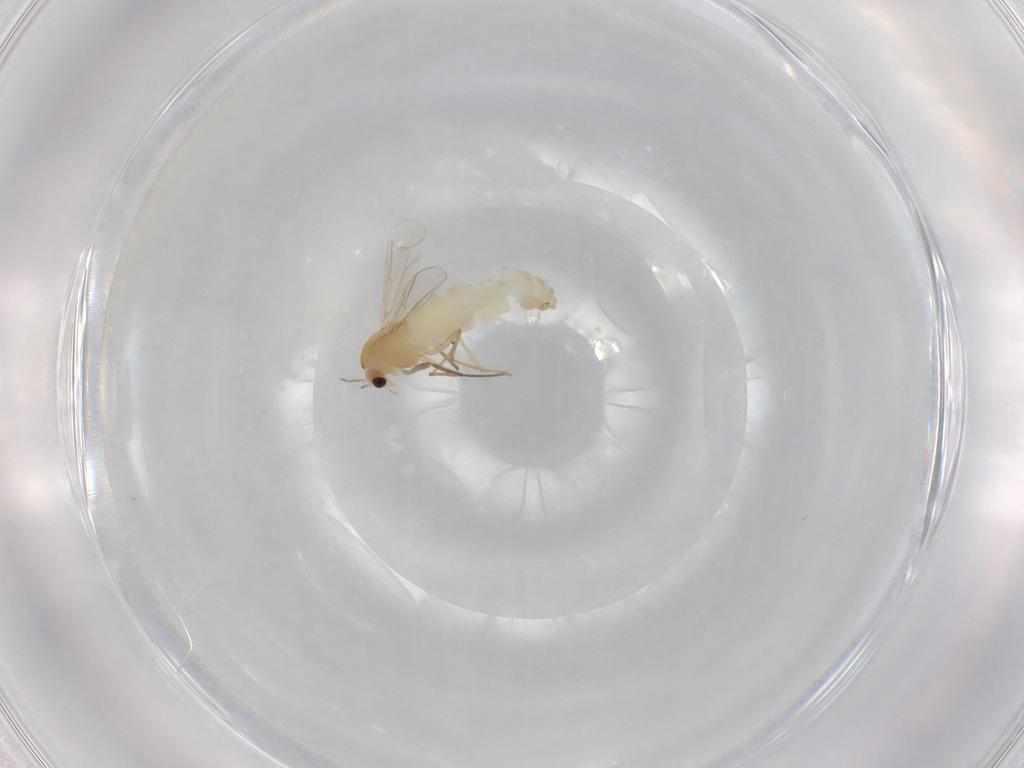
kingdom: Animalia
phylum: Arthropoda
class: Insecta
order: Diptera
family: Chironomidae
